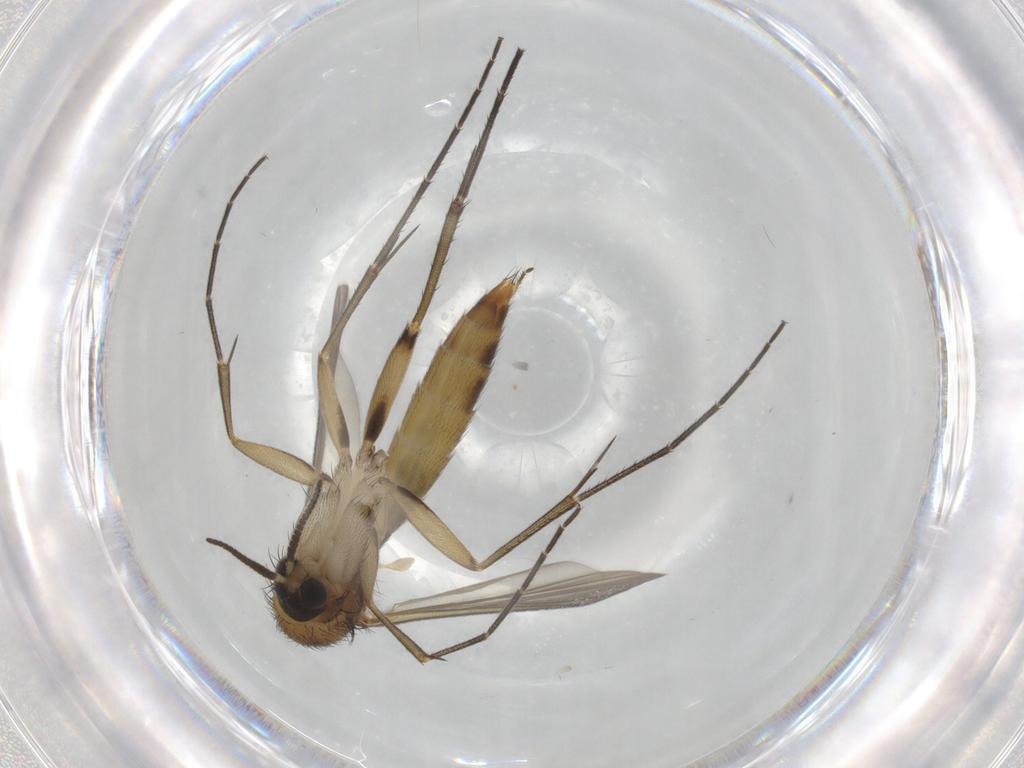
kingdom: Animalia
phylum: Arthropoda
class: Insecta
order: Diptera
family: Mycetophilidae
